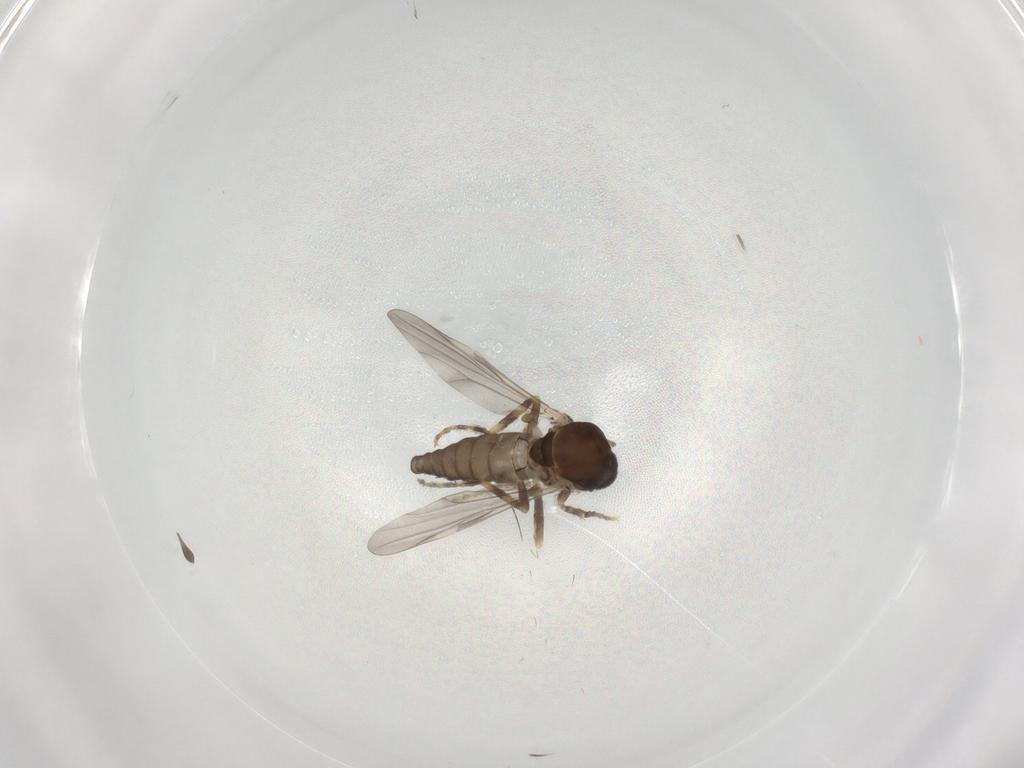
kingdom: Animalia
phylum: Arthropoda
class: Insecta
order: Diptera
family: Ceratopogonidae
